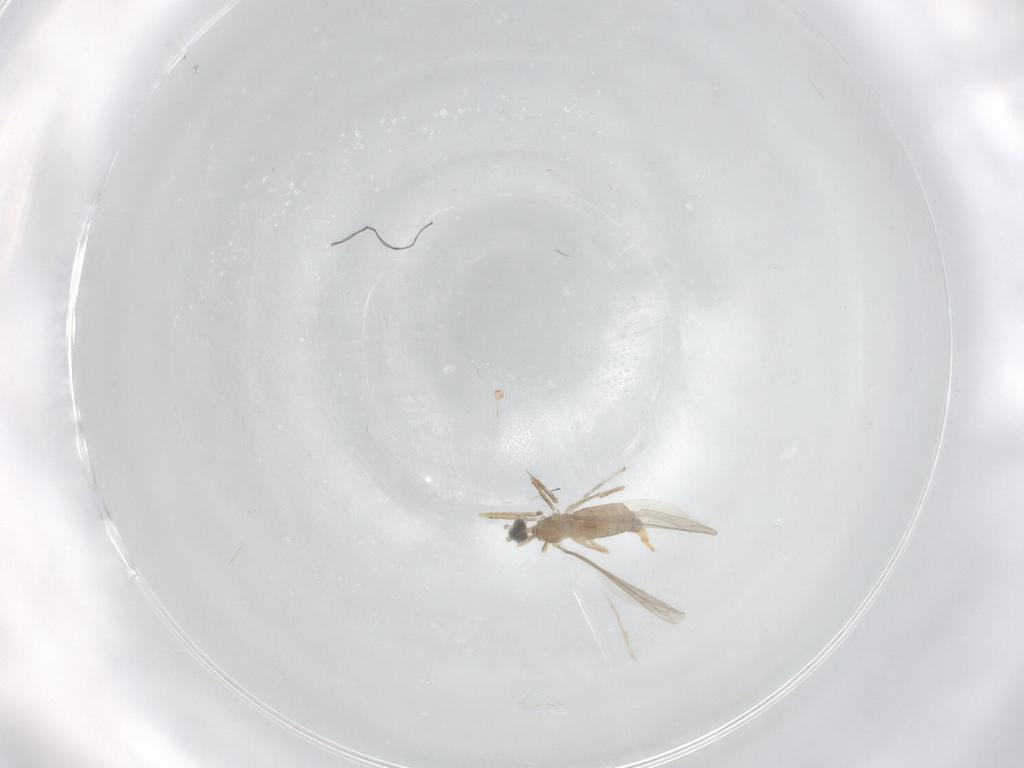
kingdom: Animalia
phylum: Arthropoda
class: Insecta
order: Diptera
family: Cecidomyiidae
